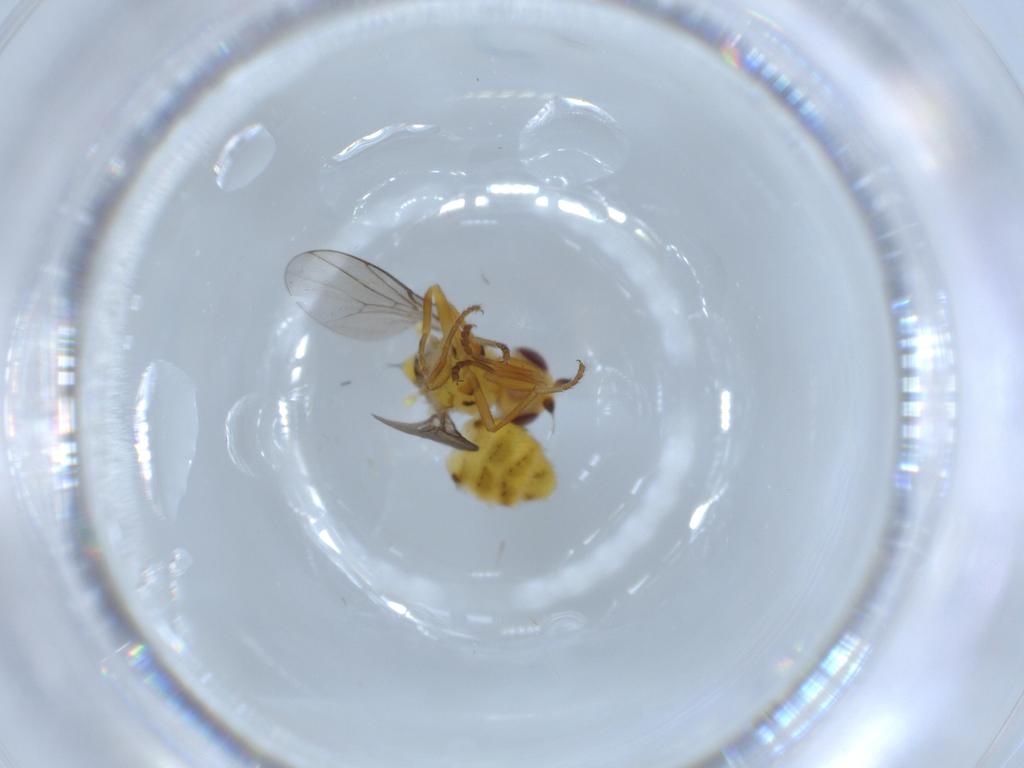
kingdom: Animalia
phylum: Arthropoda
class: Insecta
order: Diptera
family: Chloropidae
